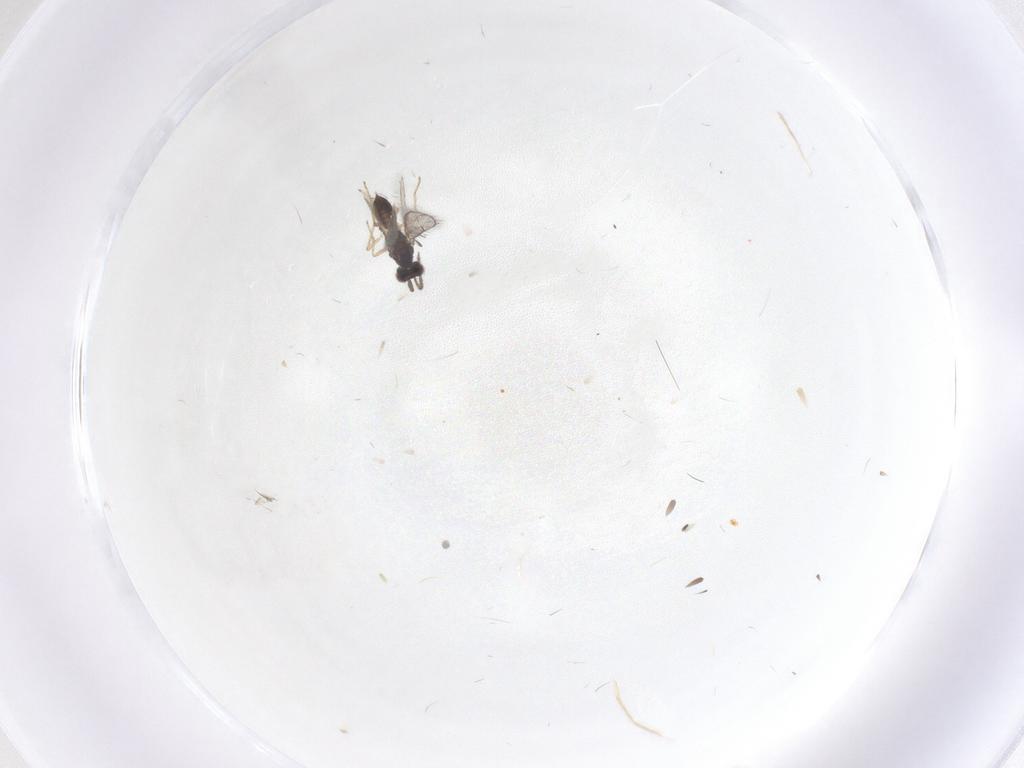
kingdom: Animalia
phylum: Arthropoda
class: Insecta
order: Hymenoptera
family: Eulophidae
